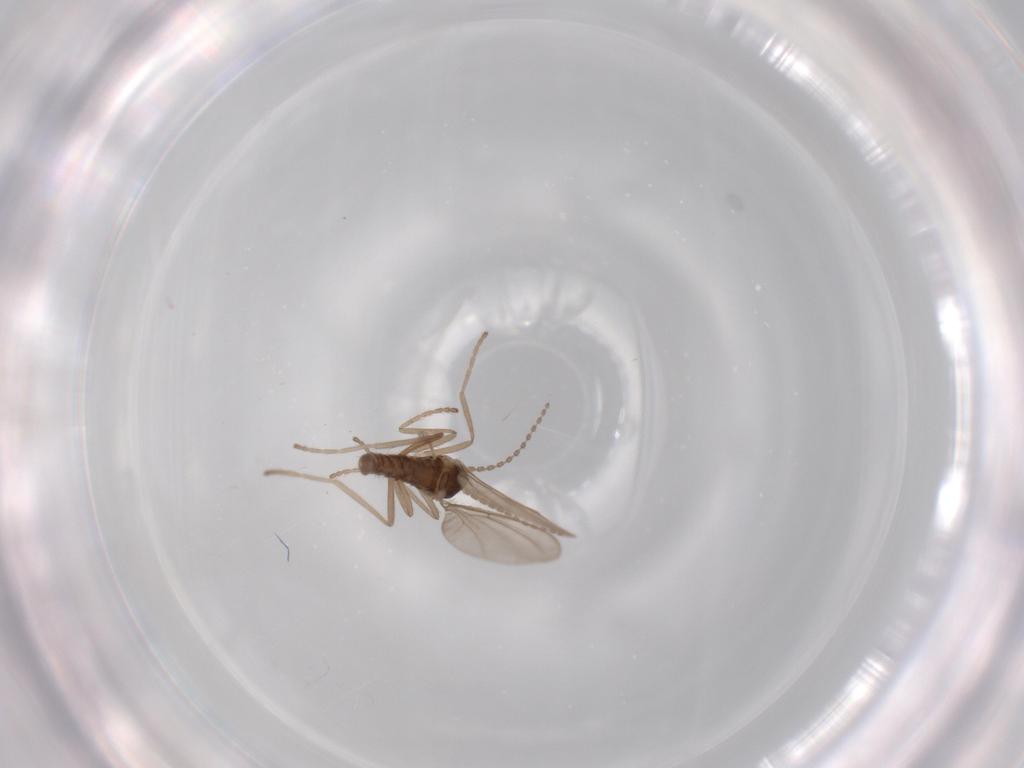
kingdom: Animalia
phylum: Arthropoda
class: Insecta
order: Diptera
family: Cecidomyiidae
